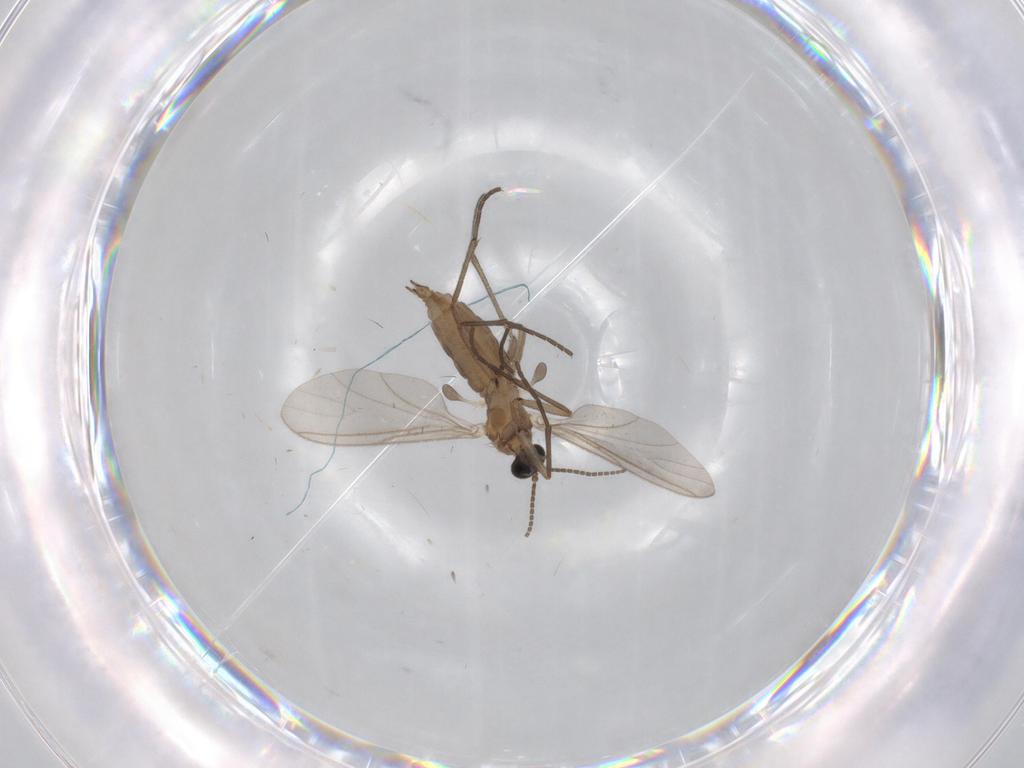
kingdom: Animalia
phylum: Arthropoda
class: Insecta
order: Diptera
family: Sciaridae
